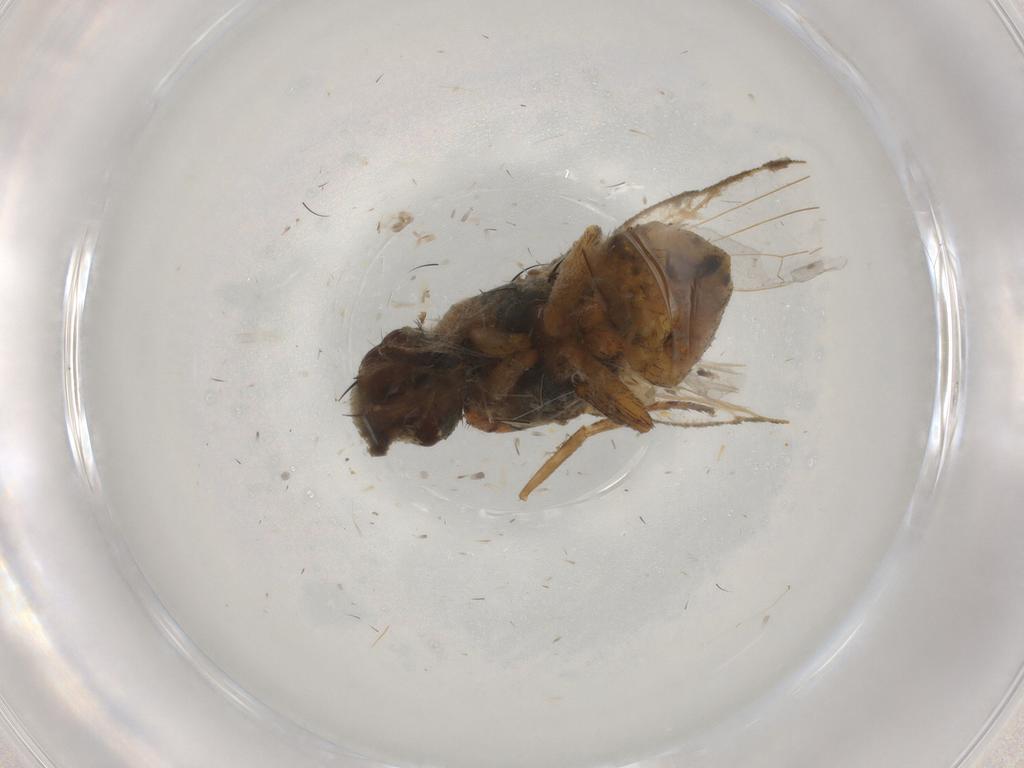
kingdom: Animalia
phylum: Arthropoda
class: Insecta
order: Diptera
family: Muscidae
